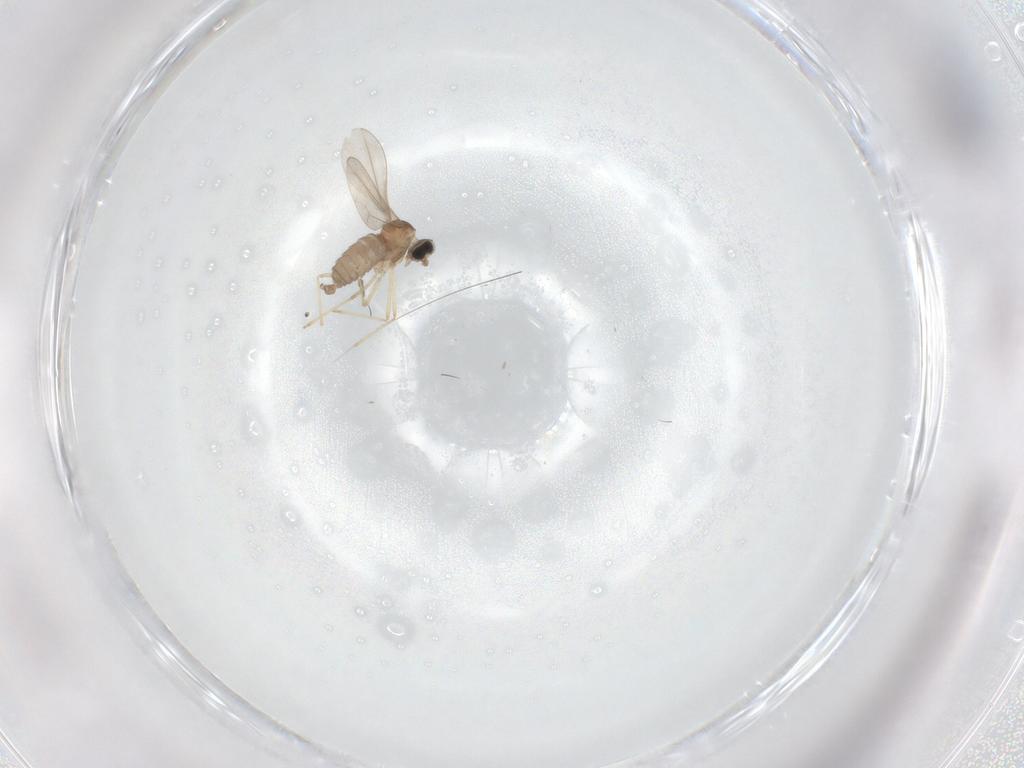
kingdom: Animalia
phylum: Arthropoda
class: Insecta
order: Diptera
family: Cecidomyiidae
